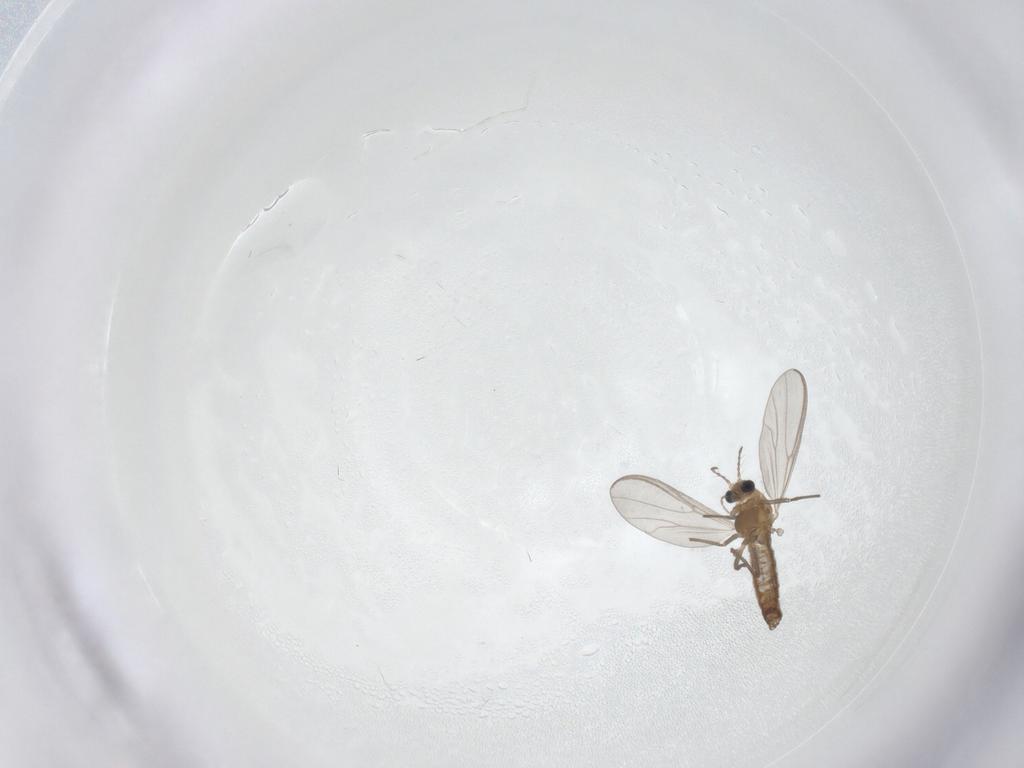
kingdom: Animalia
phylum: Arthropoda
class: Insecta
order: Diptera
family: Chironomidae
